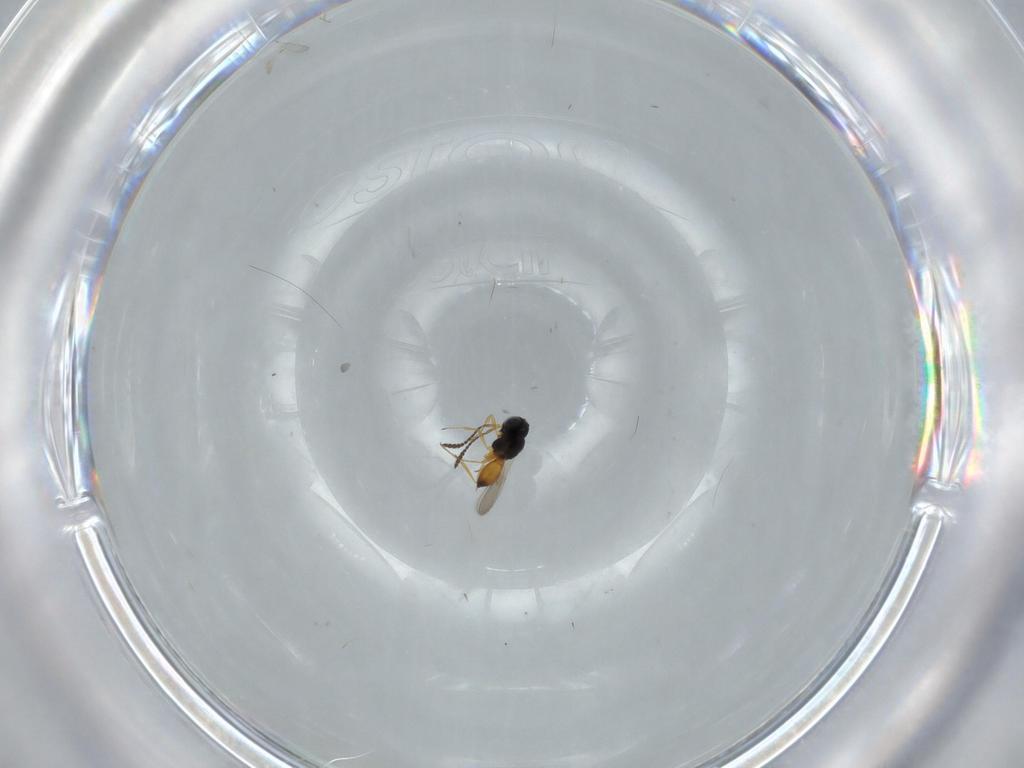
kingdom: Animalia
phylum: Arthropoda
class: Insecta
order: Hymenoptera
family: Scelionidae
